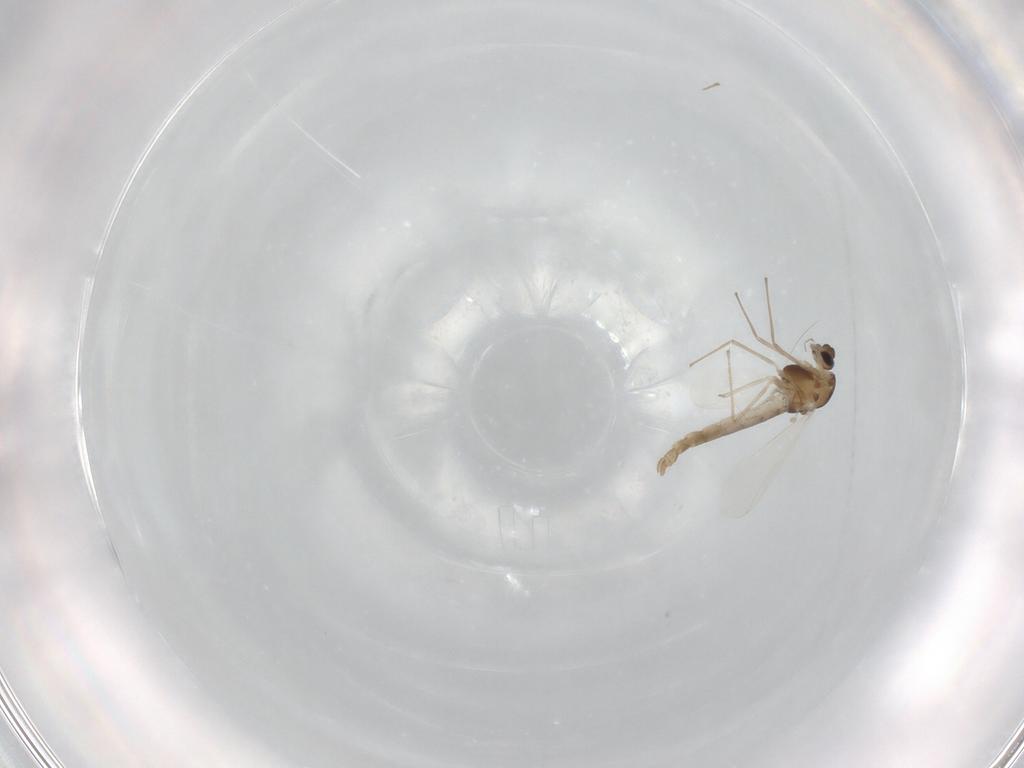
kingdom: Animalia
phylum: Arthropoda
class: Insecta
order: Diptera
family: Chironomidae
